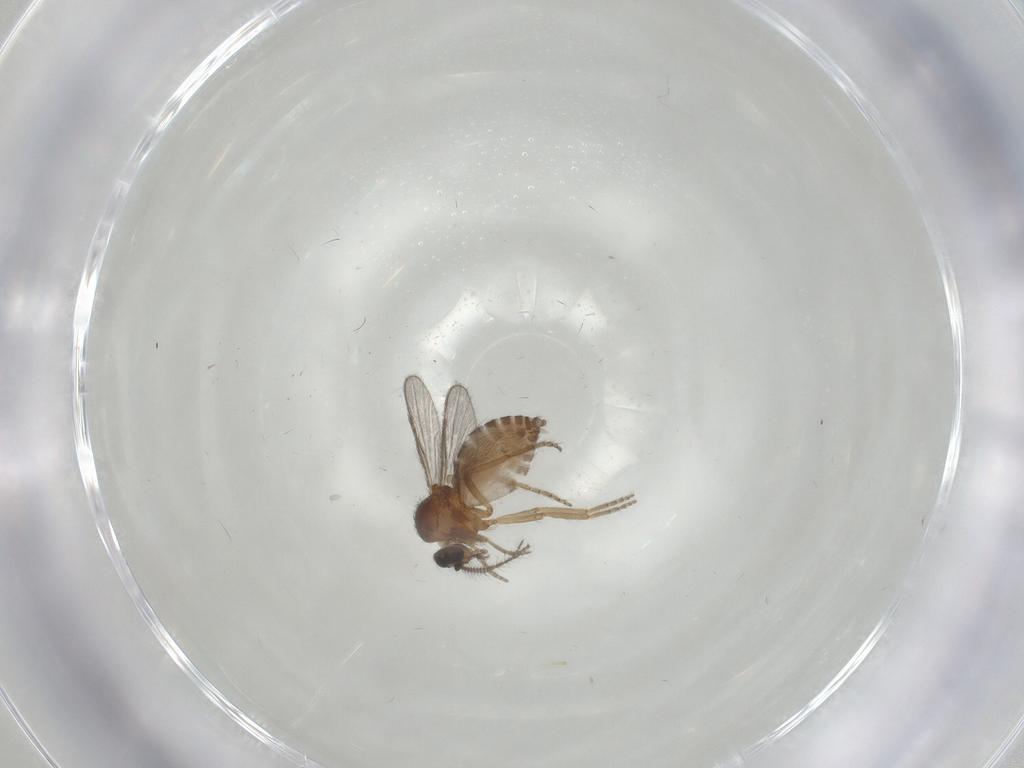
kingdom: Animalia
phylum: Arthropoda
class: Insecta
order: Diptera
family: Ceratopogonidae
